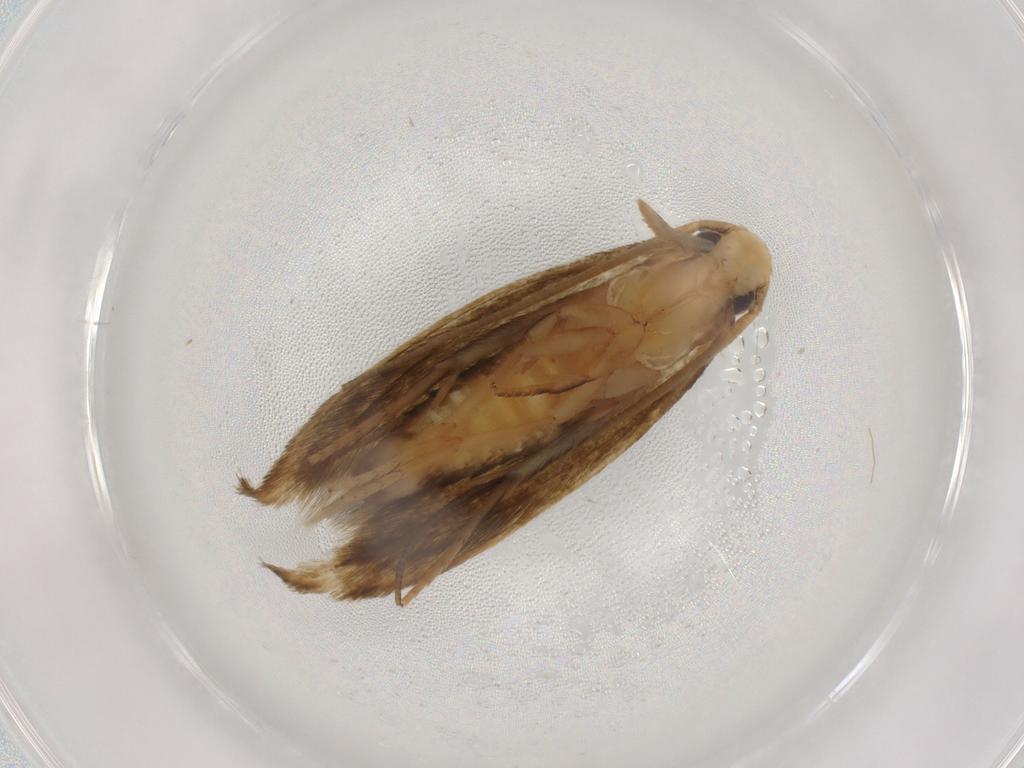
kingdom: Animalia
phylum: Arthropoda
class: Insecta
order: Lepidoptera
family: Tineidae
